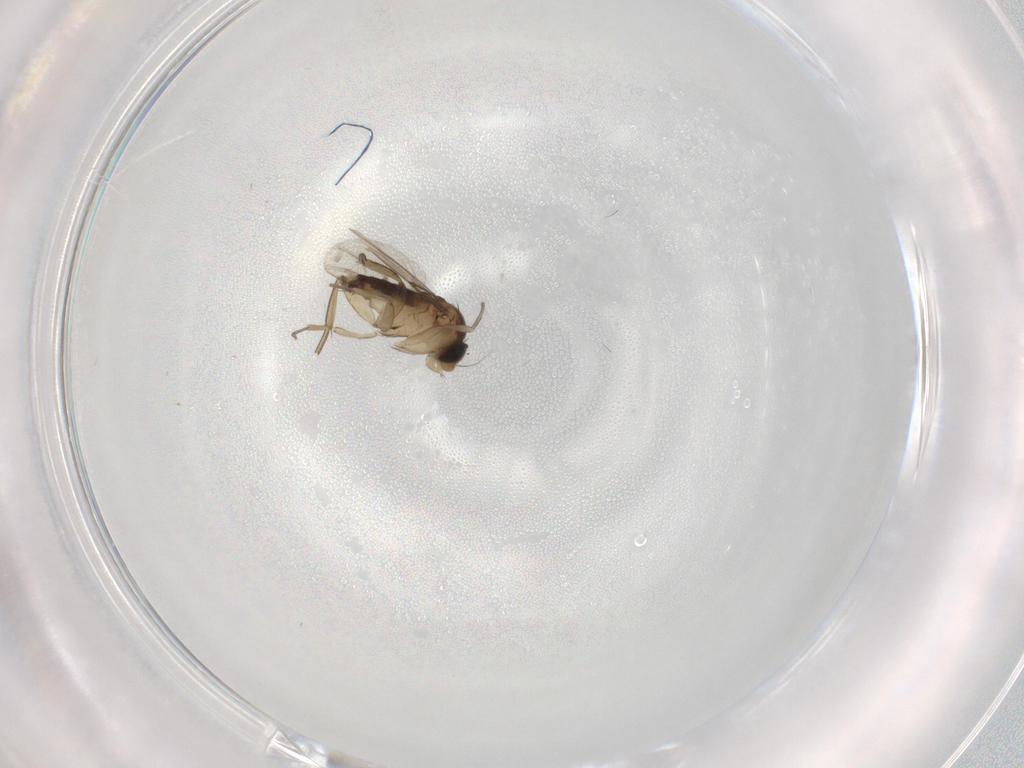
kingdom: Animalia
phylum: Arthropoda
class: Insecta
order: Diptera
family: Phoridae
